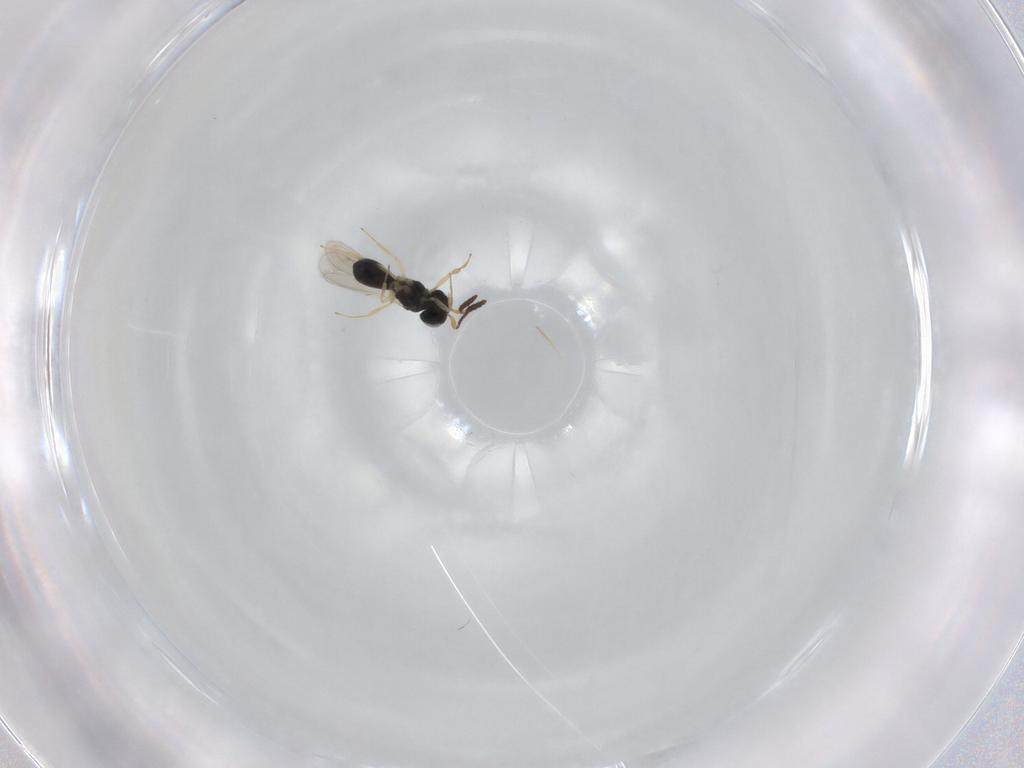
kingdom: Animalia
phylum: Arthropoda
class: Insecta
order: Hymenoptera
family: Scelionidae
